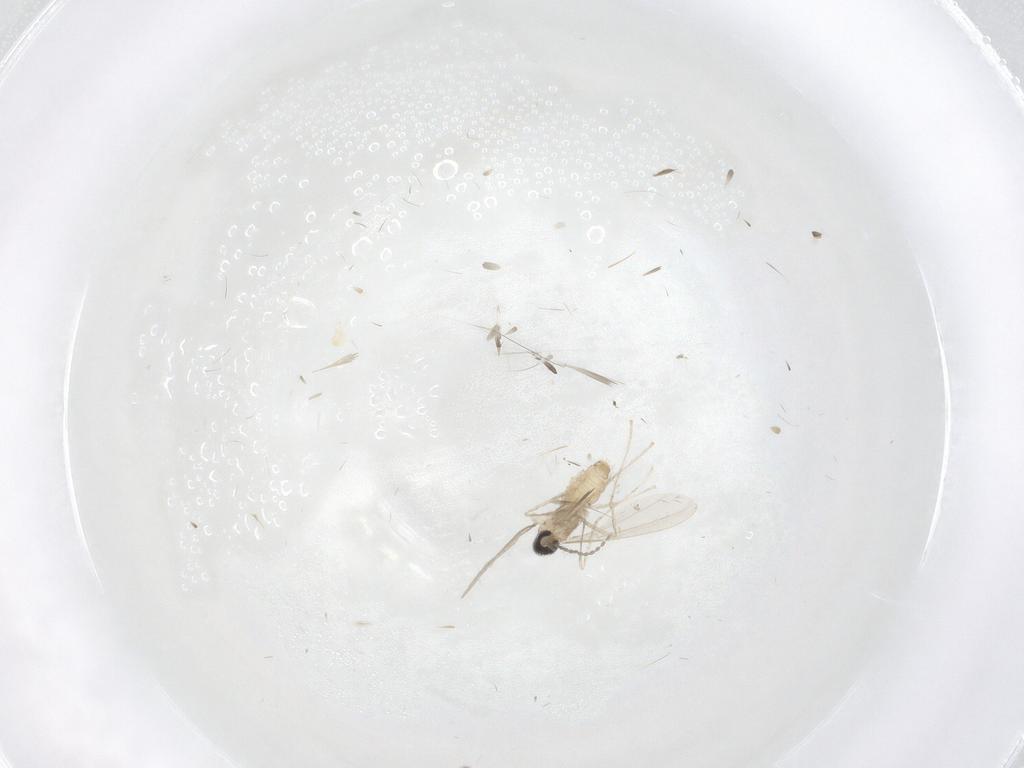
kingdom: Animalia
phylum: Arthropoda
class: Insecta
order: Diptera
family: Cecidomyiidae
